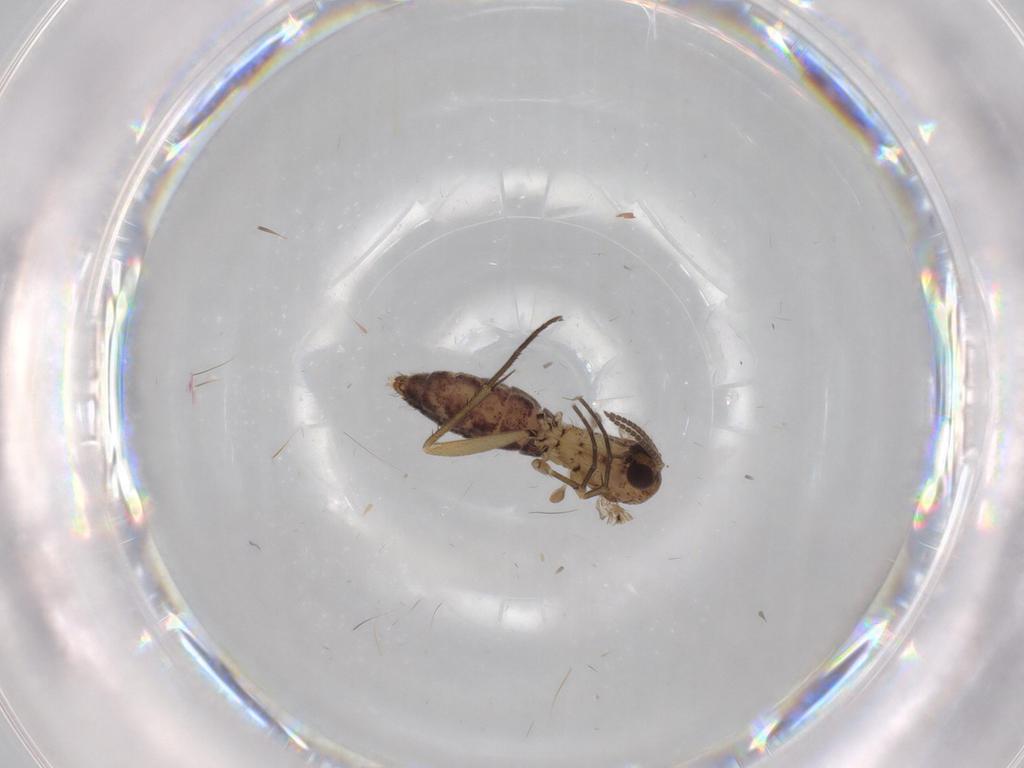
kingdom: Animalia
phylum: Arthropoda
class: Insecta
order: Diptera
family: Mycetophilidae
